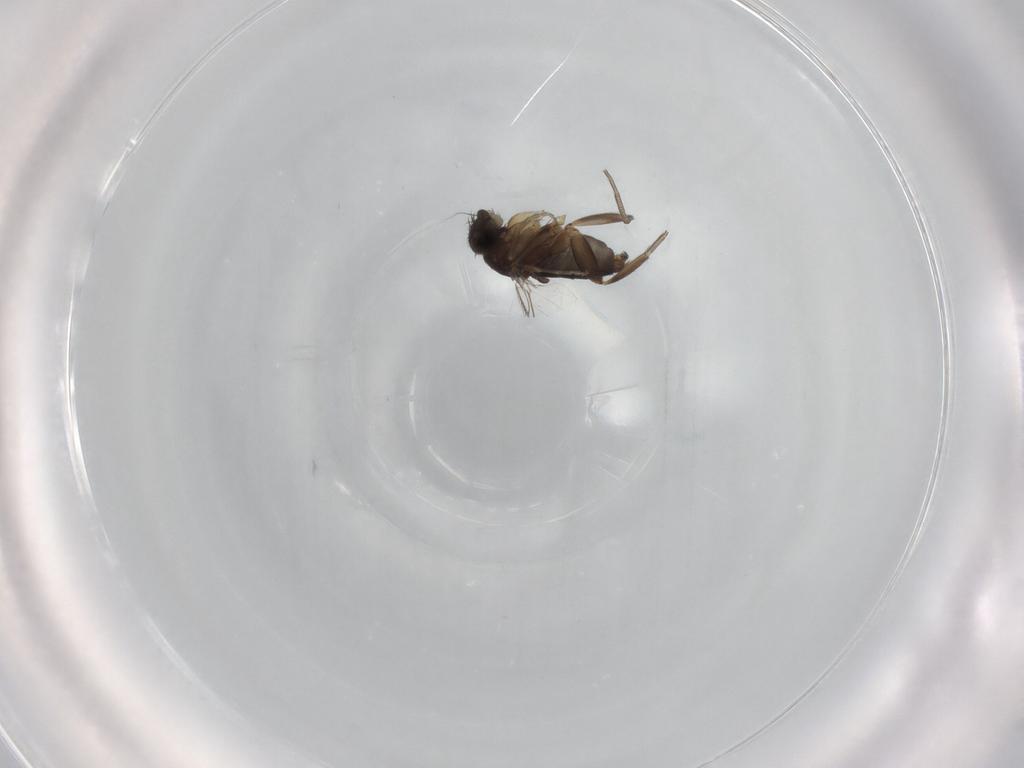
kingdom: Animalia
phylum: Arthropoda
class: Insecta
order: Diptera
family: Phoridae
